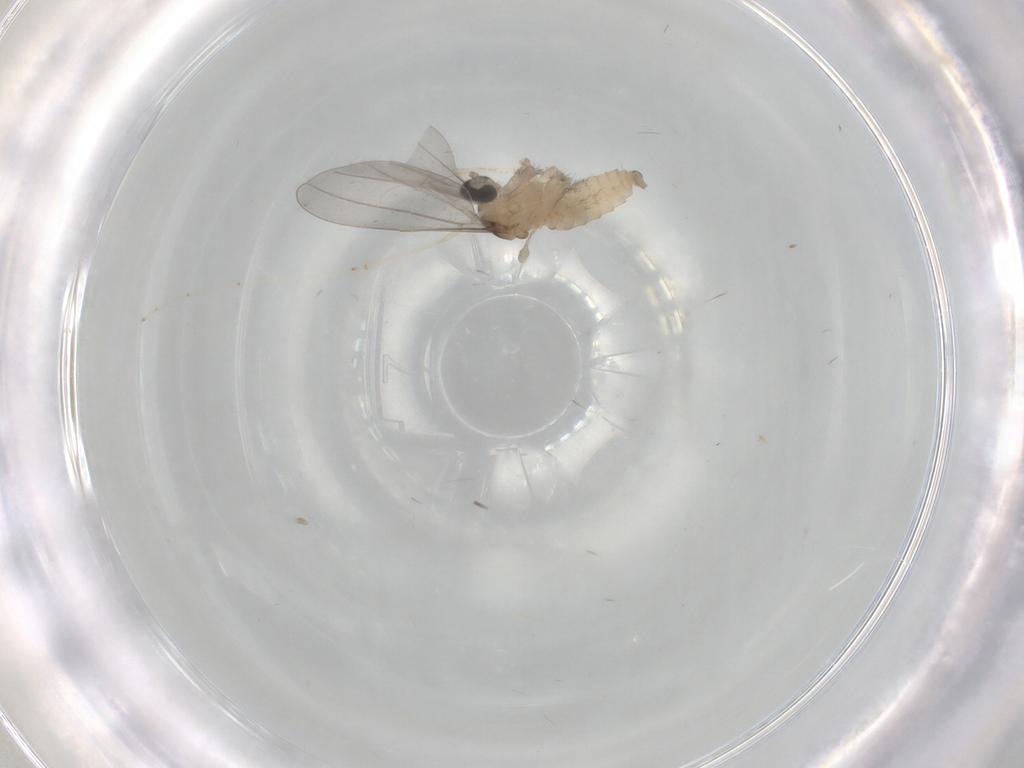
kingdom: Animalia
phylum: Arthropoda
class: Insecta
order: Diptera
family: Cecidomyiidae
